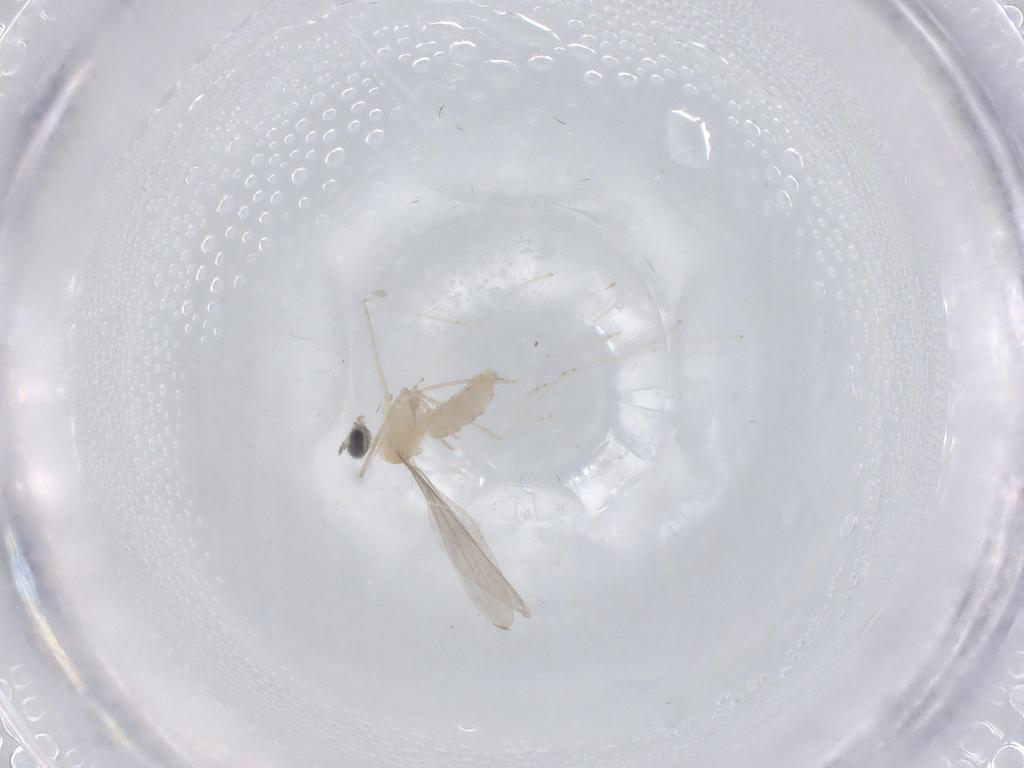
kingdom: Animalia
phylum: Arthropoda
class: Insecta
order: Diptera
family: Cecidomyiidae
